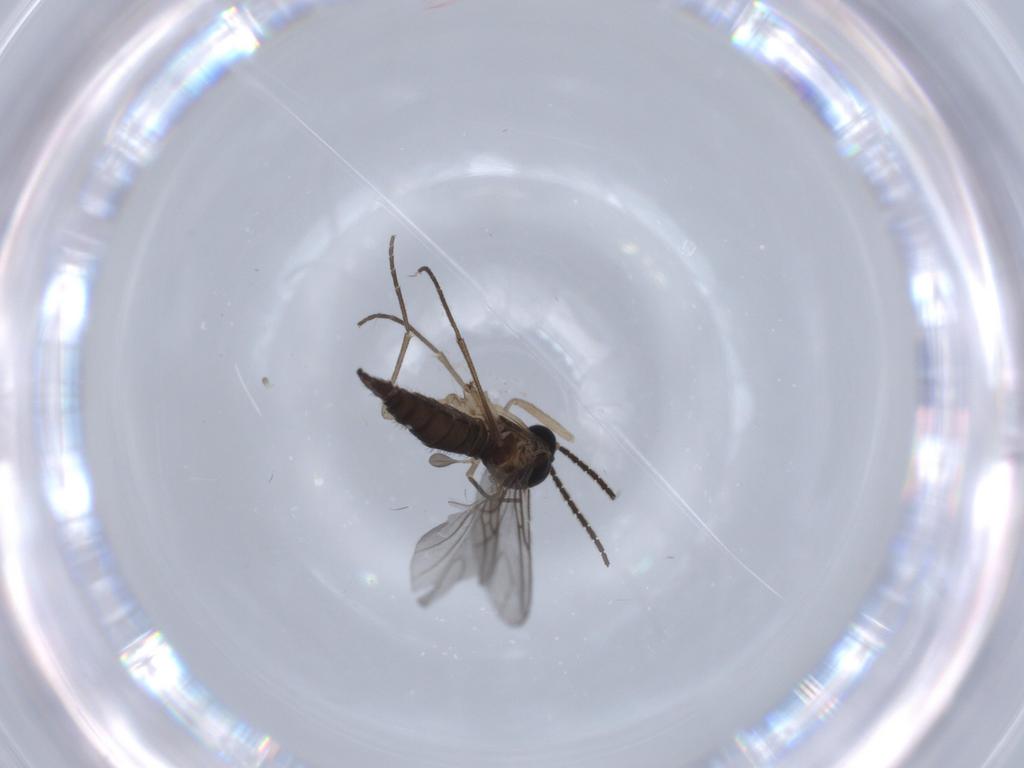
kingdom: Animalia
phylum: Arthropoda
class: Insecta
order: Diptera
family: Sciaridae
